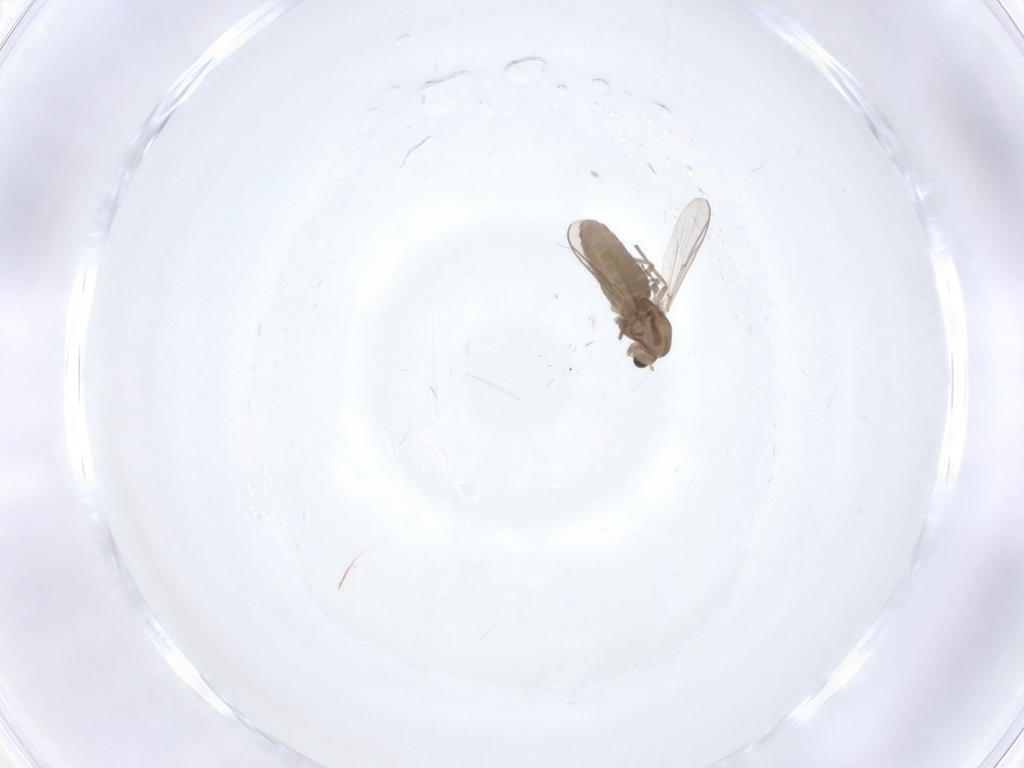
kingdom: Animalia
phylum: Arthropoda
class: Insecta
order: Diptera
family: Chironomidae
